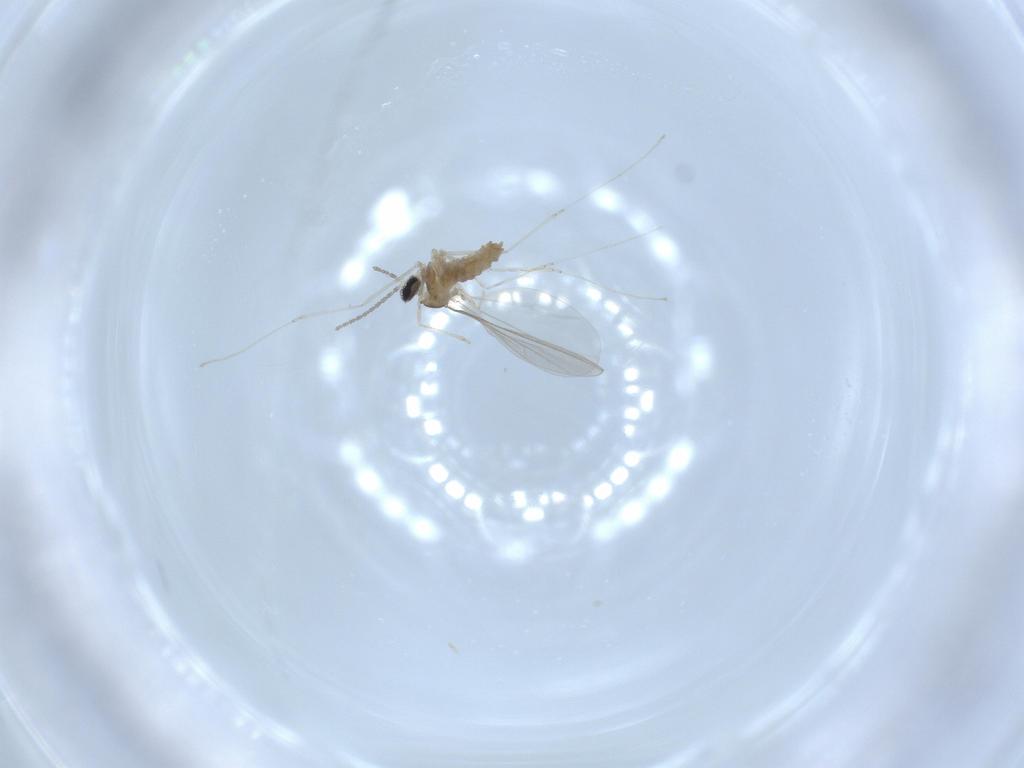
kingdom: Animalia
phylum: Arthropoda
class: Insecta
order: Diptera
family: Cecidomyiidae
